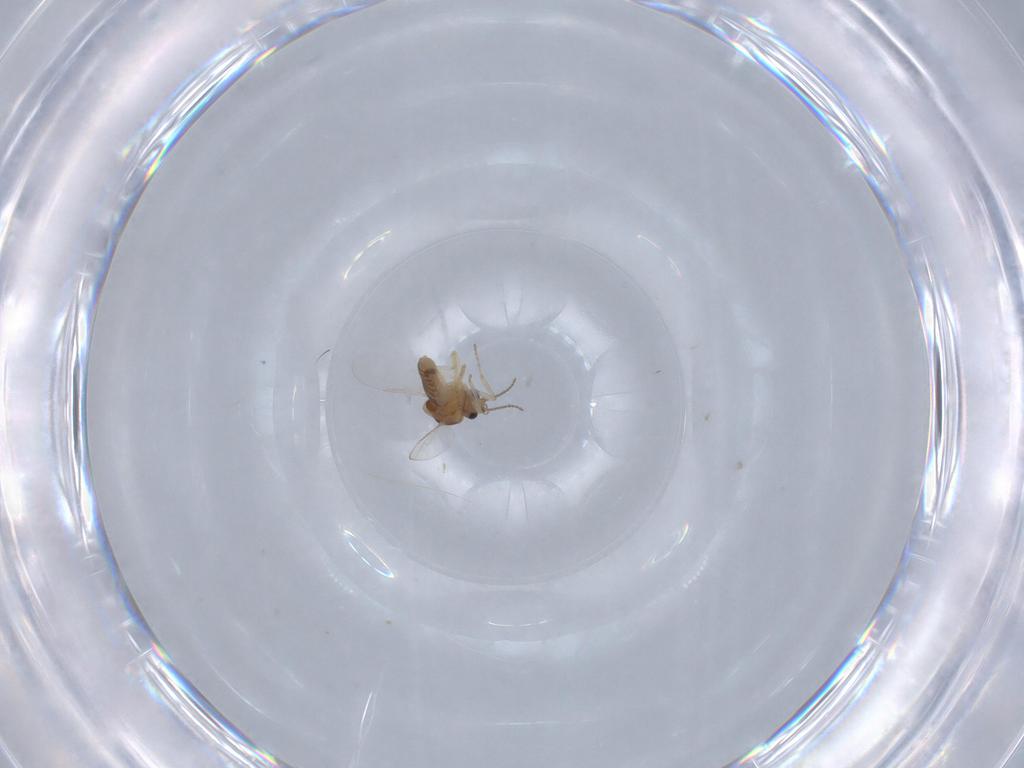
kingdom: Animalia
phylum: Arthropoda
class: Insecta
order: Diptera
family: Ceratopogonidae
